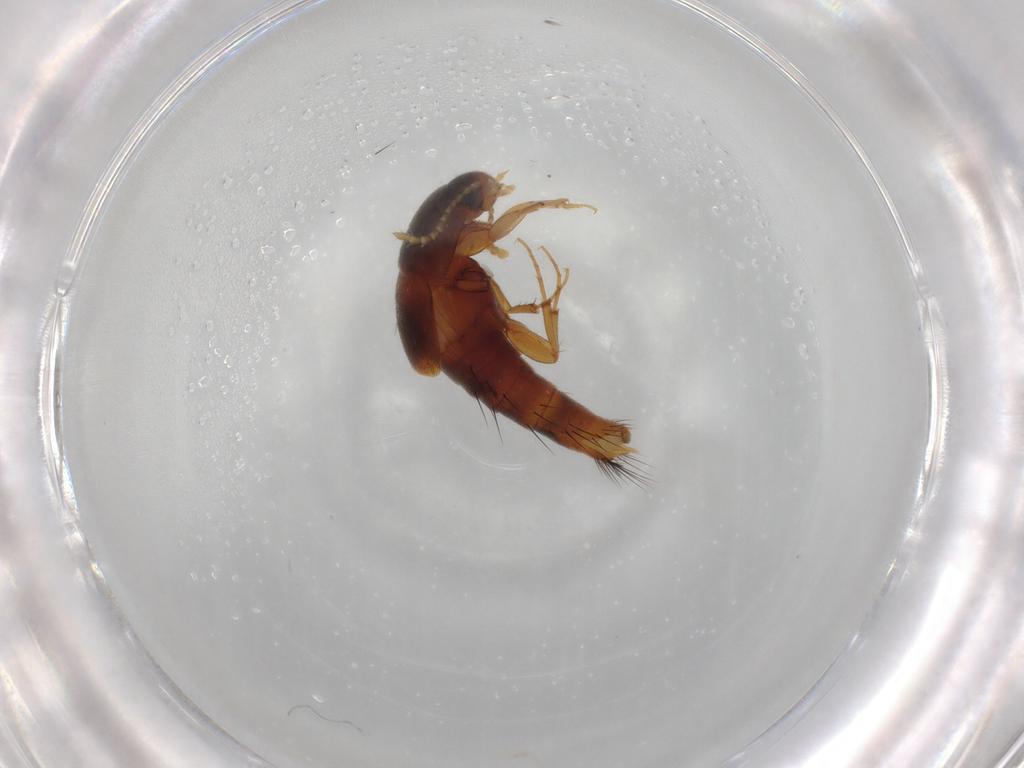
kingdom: Animalia
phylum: Arthropoda
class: Insecta
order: Coleoptera
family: Staphylinidae
